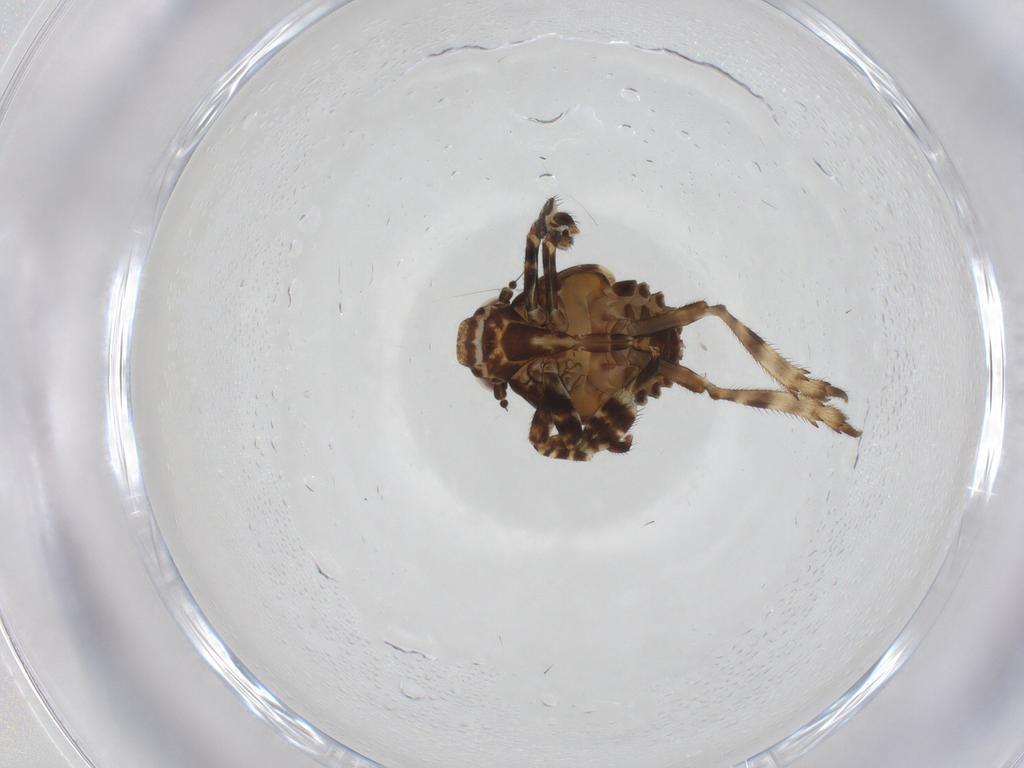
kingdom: Animalia
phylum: Arthropoda
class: Insecta
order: Hemiptera
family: Eurybrachidae
